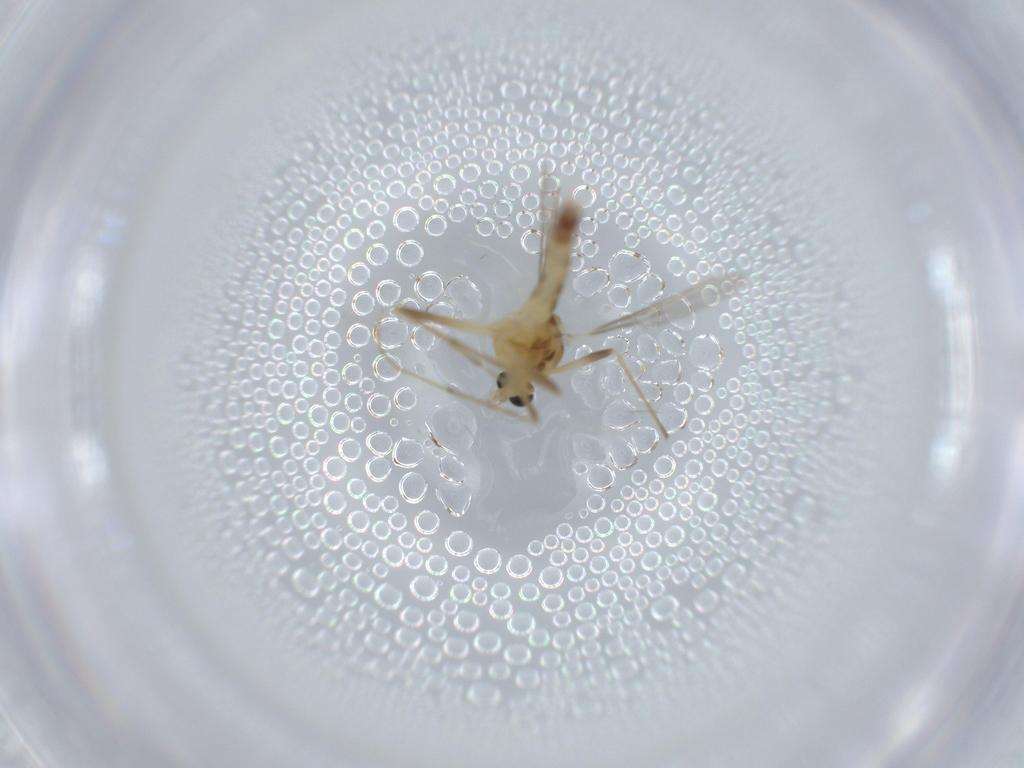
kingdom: Animalia
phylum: Arthropoda
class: Insecta
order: Diptera
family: Chironomidae
